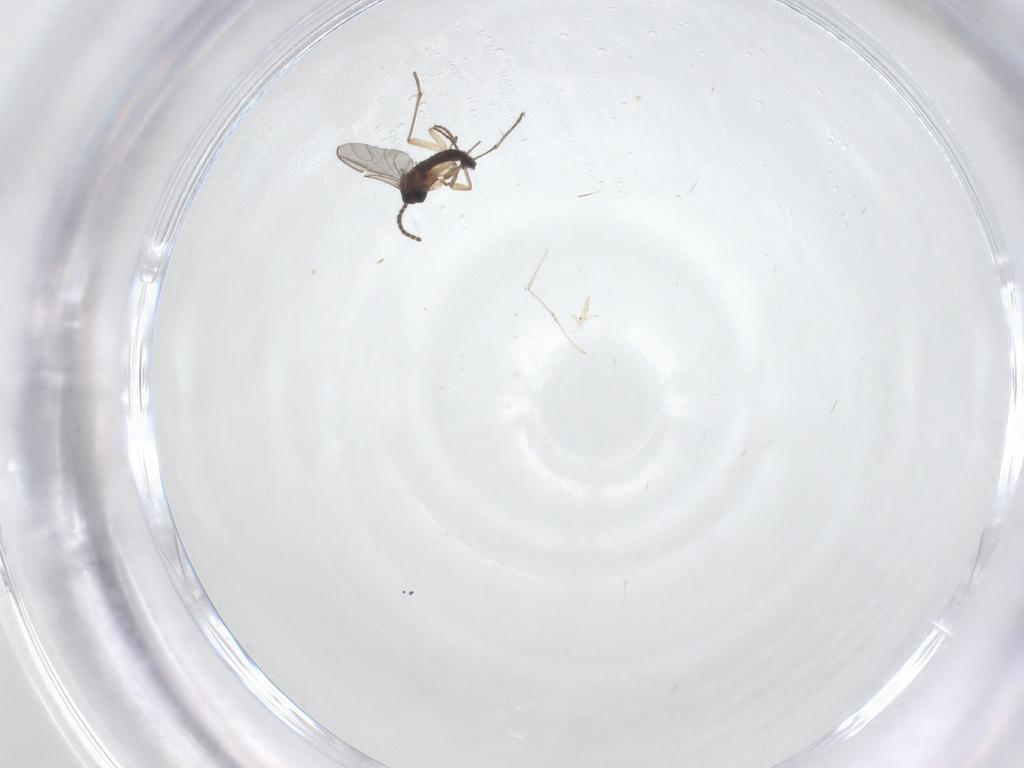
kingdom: Animalia
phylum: Arthropoda
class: Insecta
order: Diptera
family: Sciaridae
